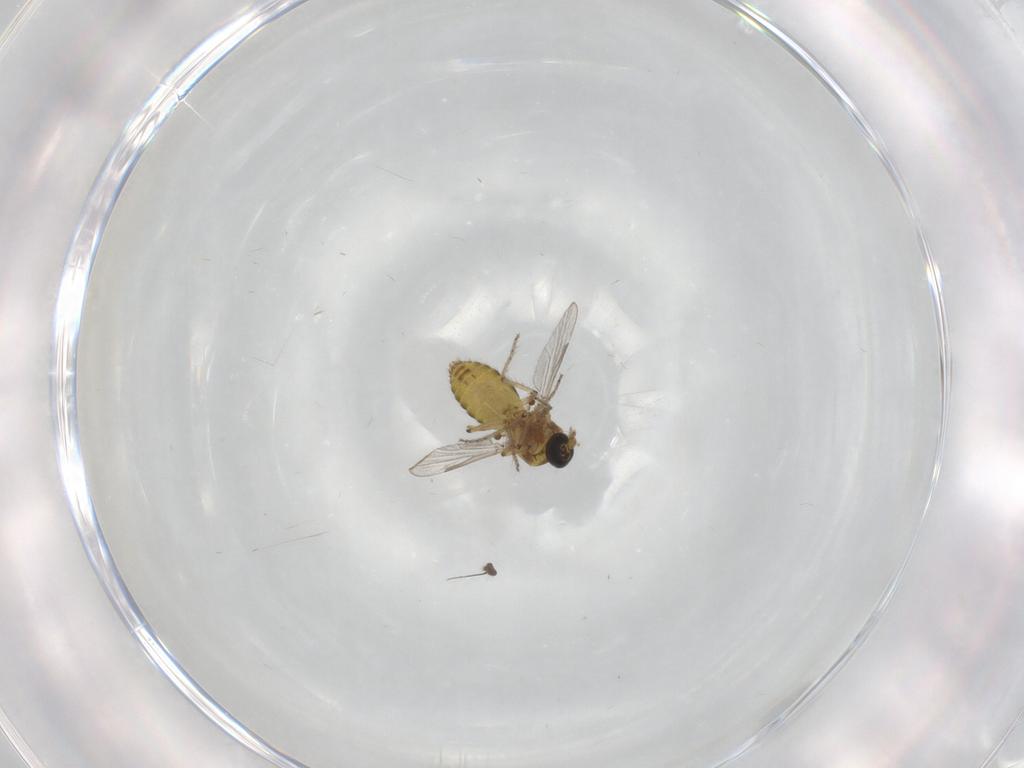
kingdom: Animalia
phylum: Arthropoda
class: Insecta
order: Diptera
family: Ceratopogonidae
